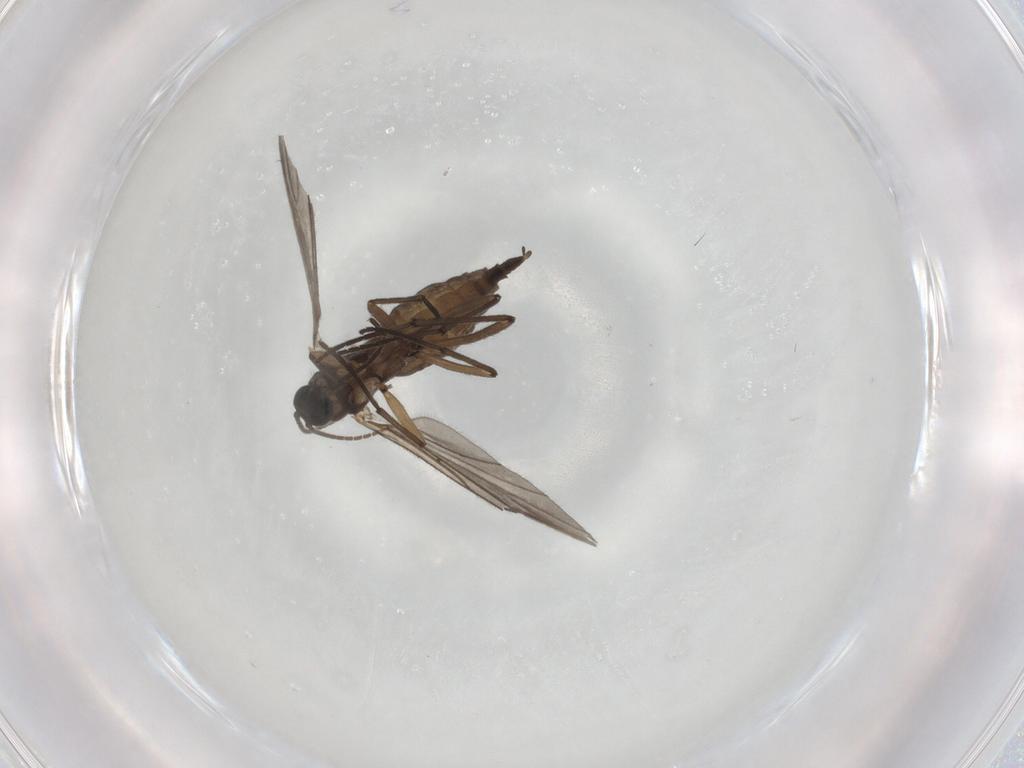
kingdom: Animalia
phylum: Arthropoda
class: Insecta
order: Diptera
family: Sciaridae
